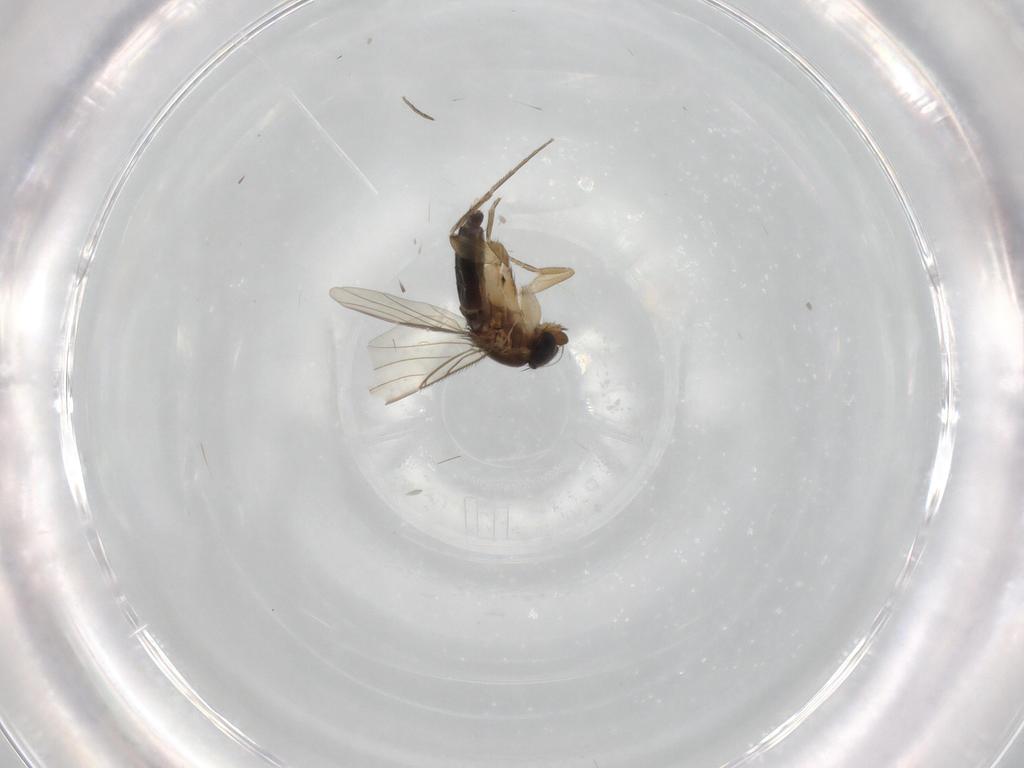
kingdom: Animalia
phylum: Arthropoda
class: Insecta
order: Diptera
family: Phoridae
